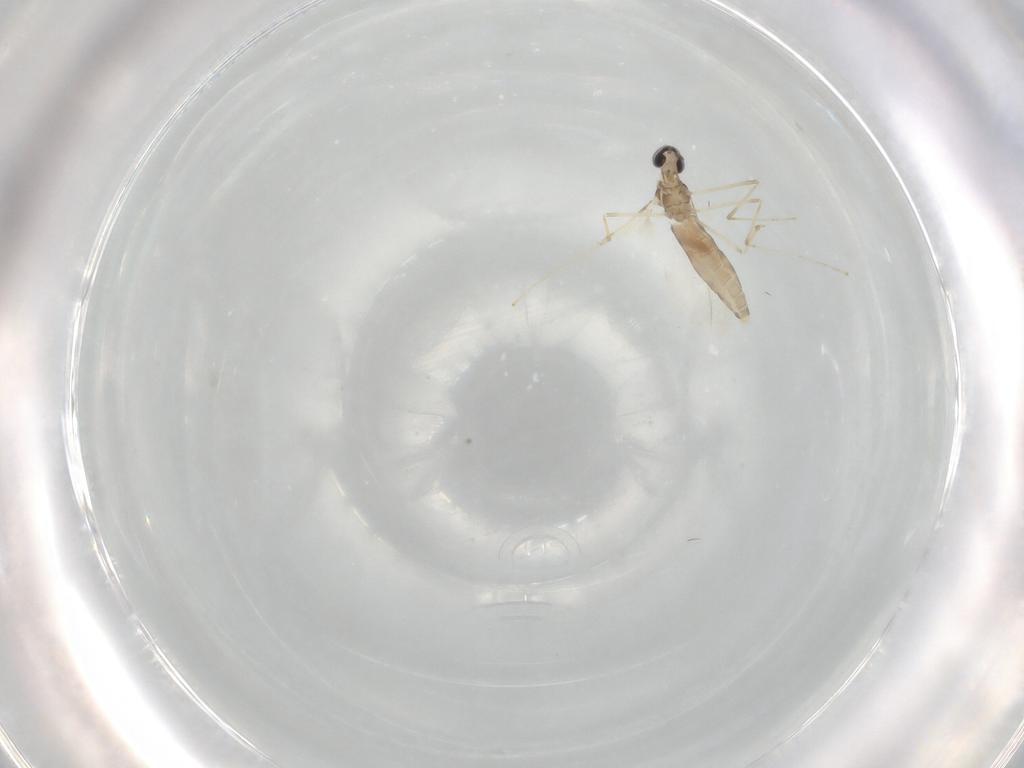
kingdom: Animalia
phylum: Arthropoda
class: Insecta
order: Diptera
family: Cecidomyiidae
